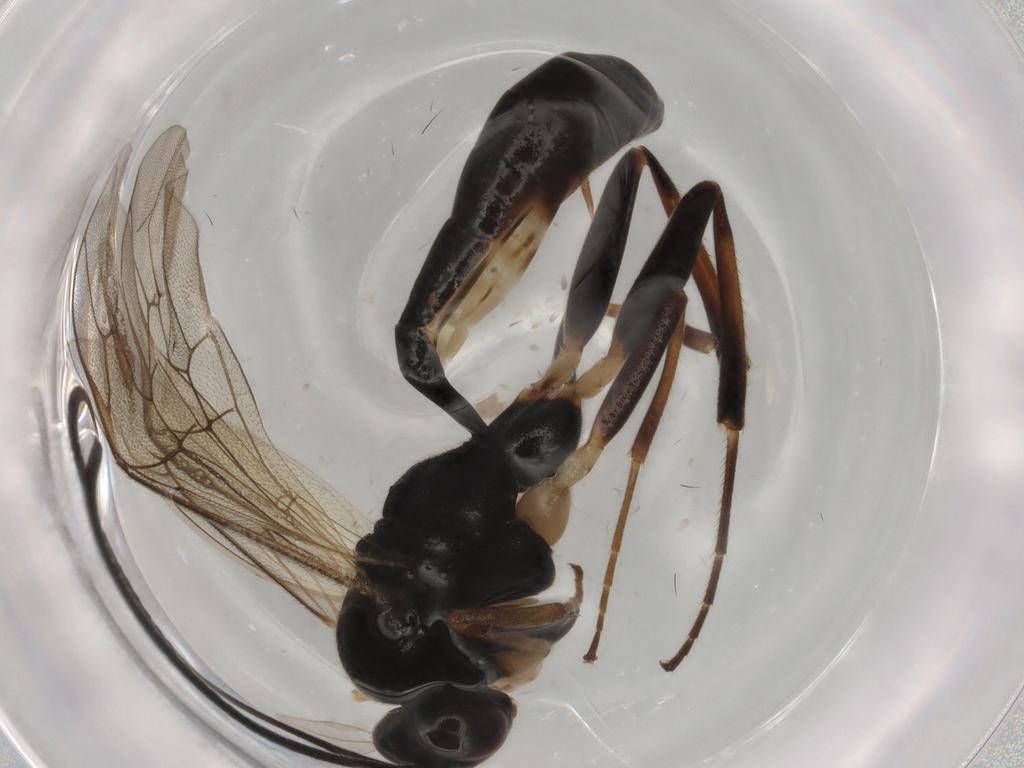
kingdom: Animalia
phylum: Arthropoda
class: Insecta
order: Hymenoptera
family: Ichneumonidae
